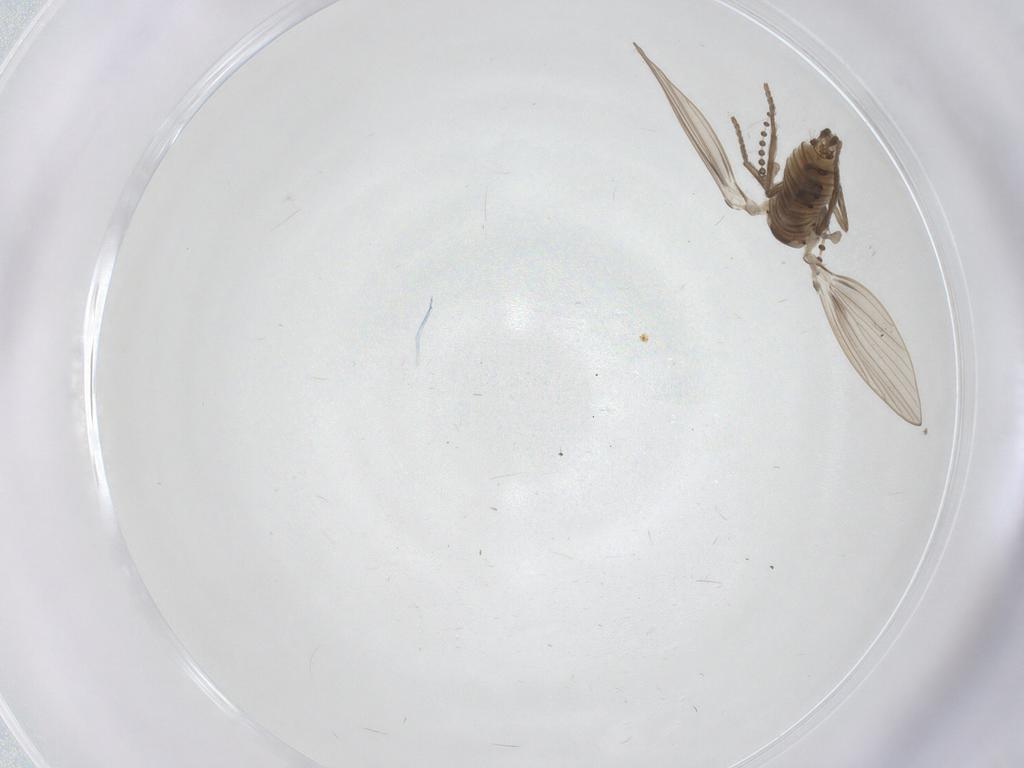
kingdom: Animalia
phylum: Arthropoda
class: Insecta
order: Diptera
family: Psychodidae
